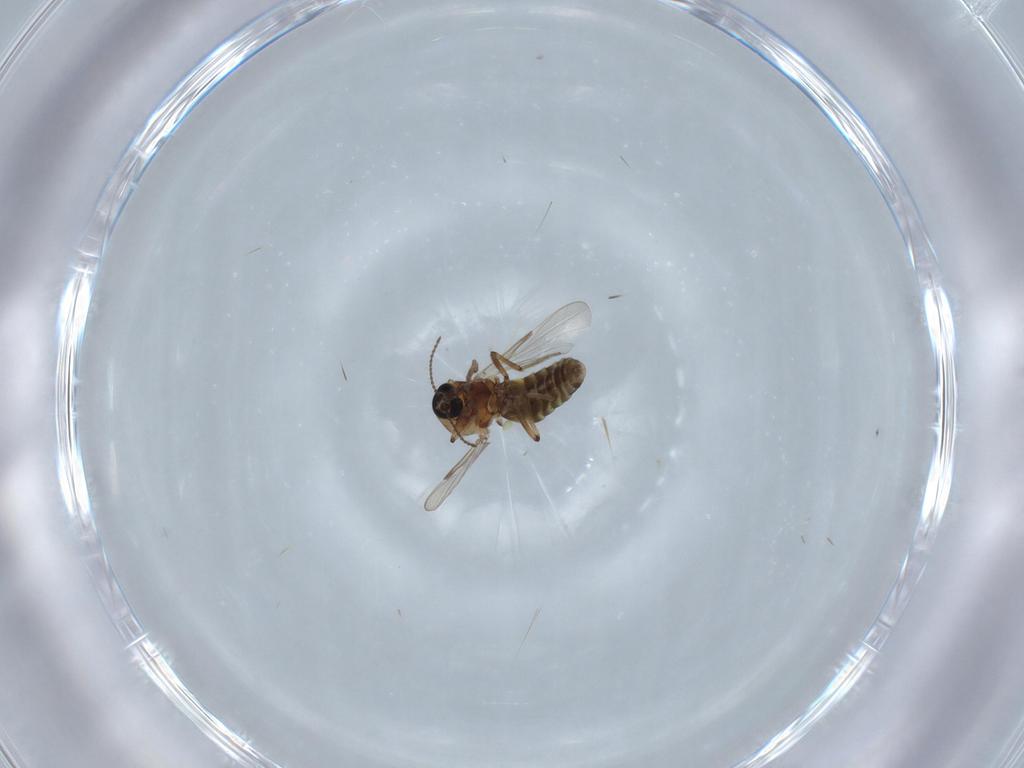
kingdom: Animalia
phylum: Arthropoda
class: Insecta
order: Diptera
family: Ceratopogonidae
